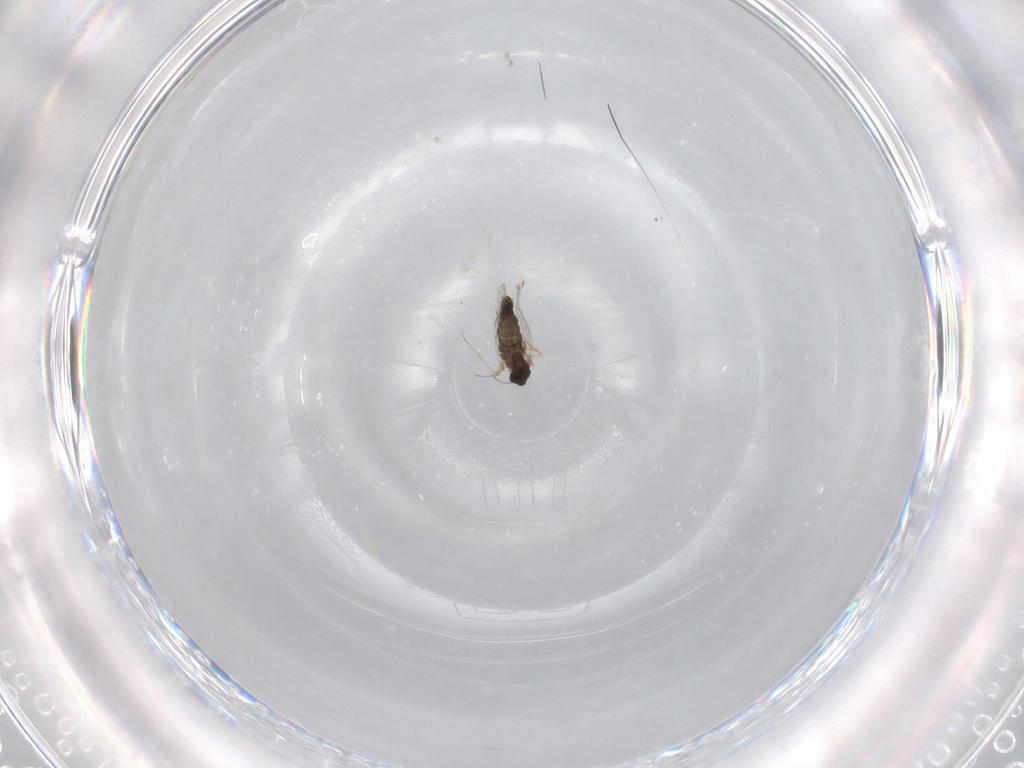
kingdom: Animalia
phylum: Arthropoda
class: Insecta
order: Diptera
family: Chironomidae
